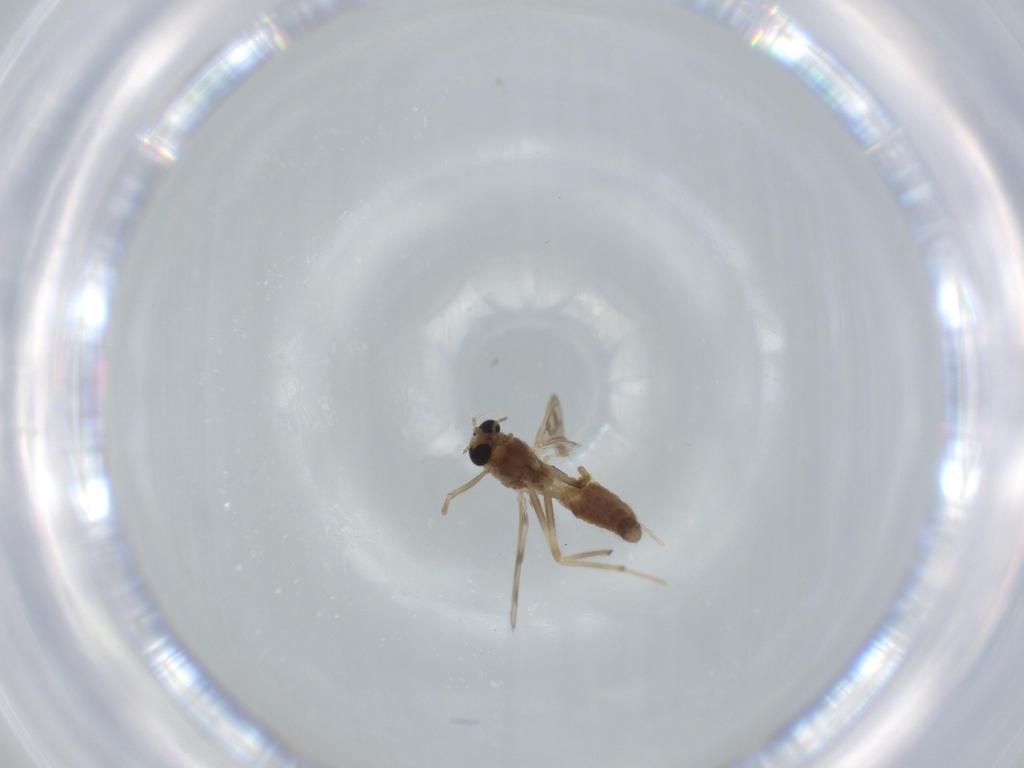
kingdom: Animalia
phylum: Arthropoda
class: Insecta
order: Diptera
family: Chironomidae
